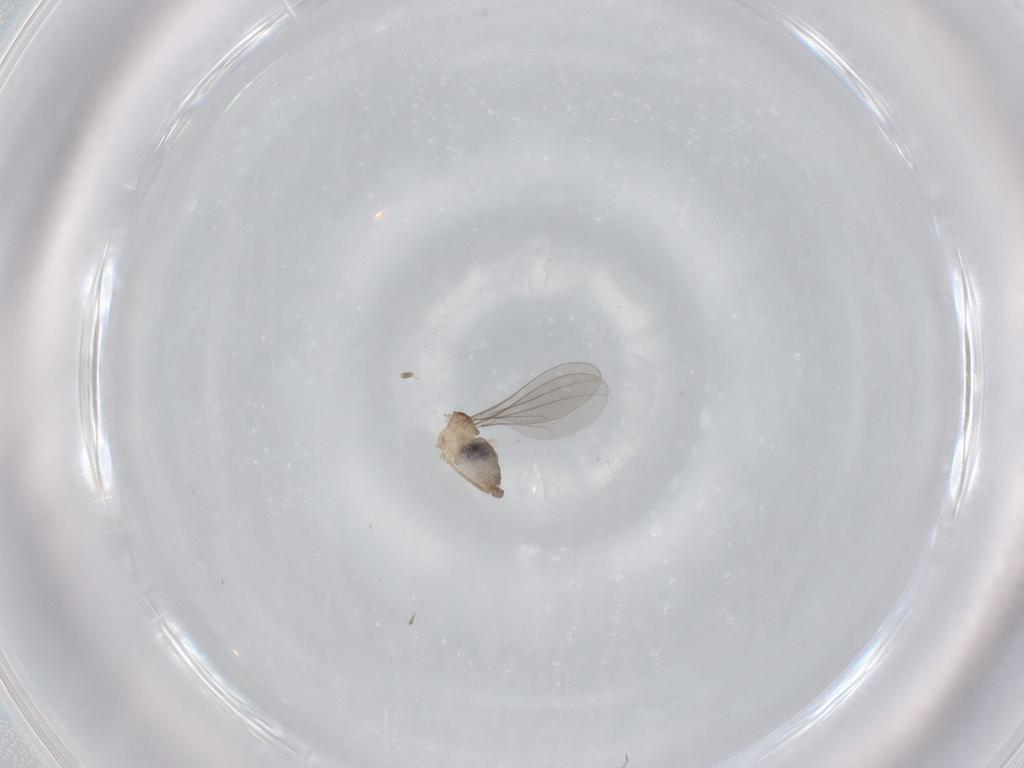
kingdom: Animalia
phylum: Arthropoda
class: Insecta
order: Diptera
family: Cecidomyiidae
